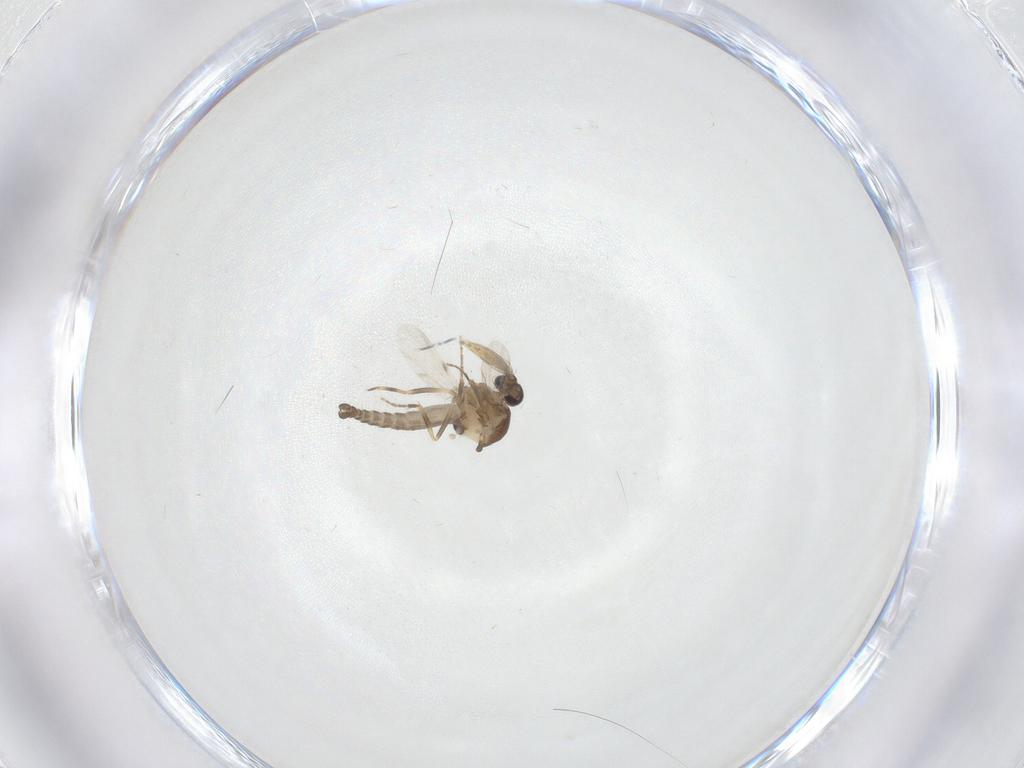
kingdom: Animalia
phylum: Arthropoda
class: Insecta
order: Diptera
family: Ceratopogonidae
